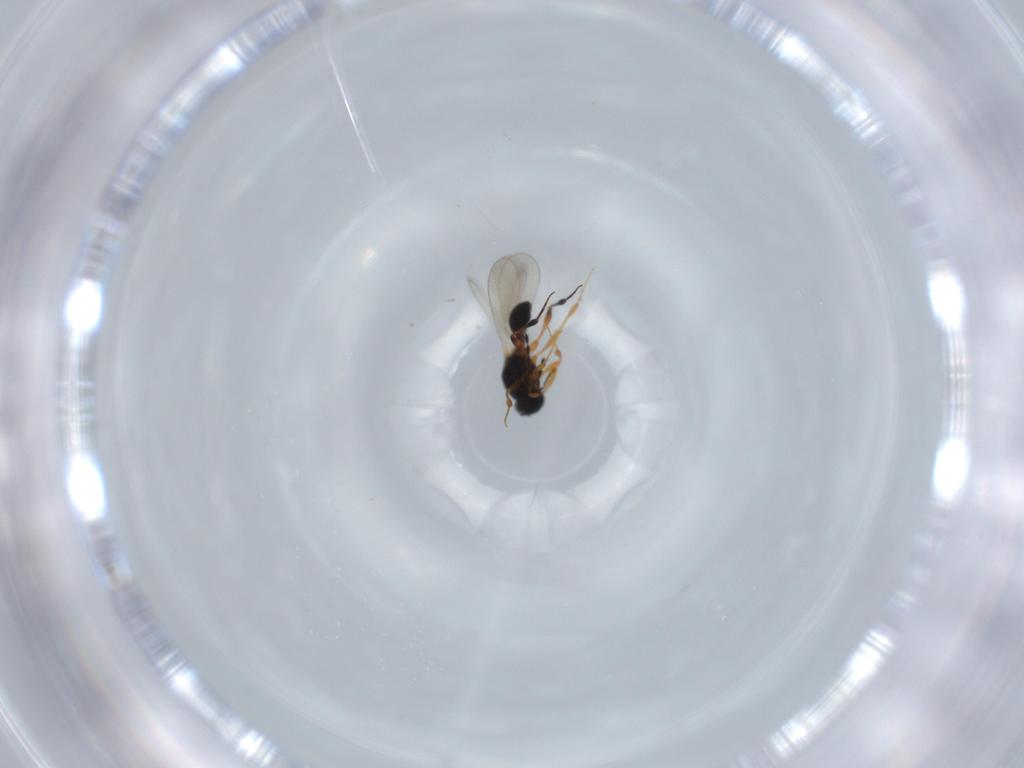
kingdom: Animalia
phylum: Arthropoda
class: Insecta
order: Hymenoptera
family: Platygastridae
